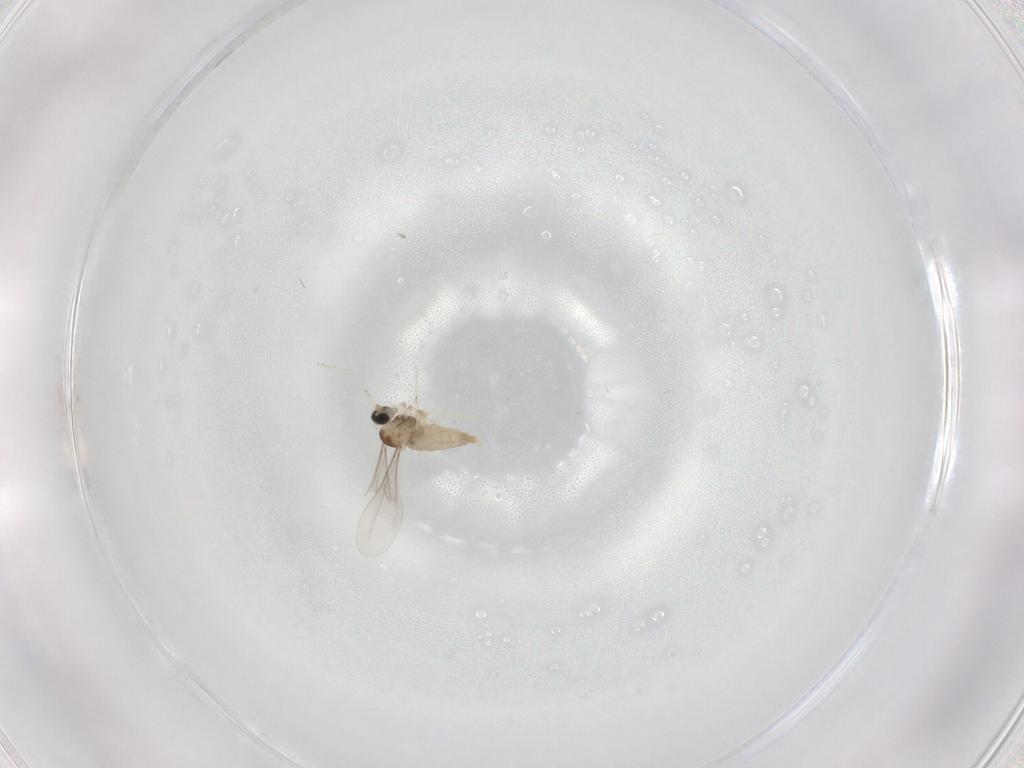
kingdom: Animalia
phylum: Arthropoda
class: Insecta
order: Diptera
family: Cecidomyiidae
